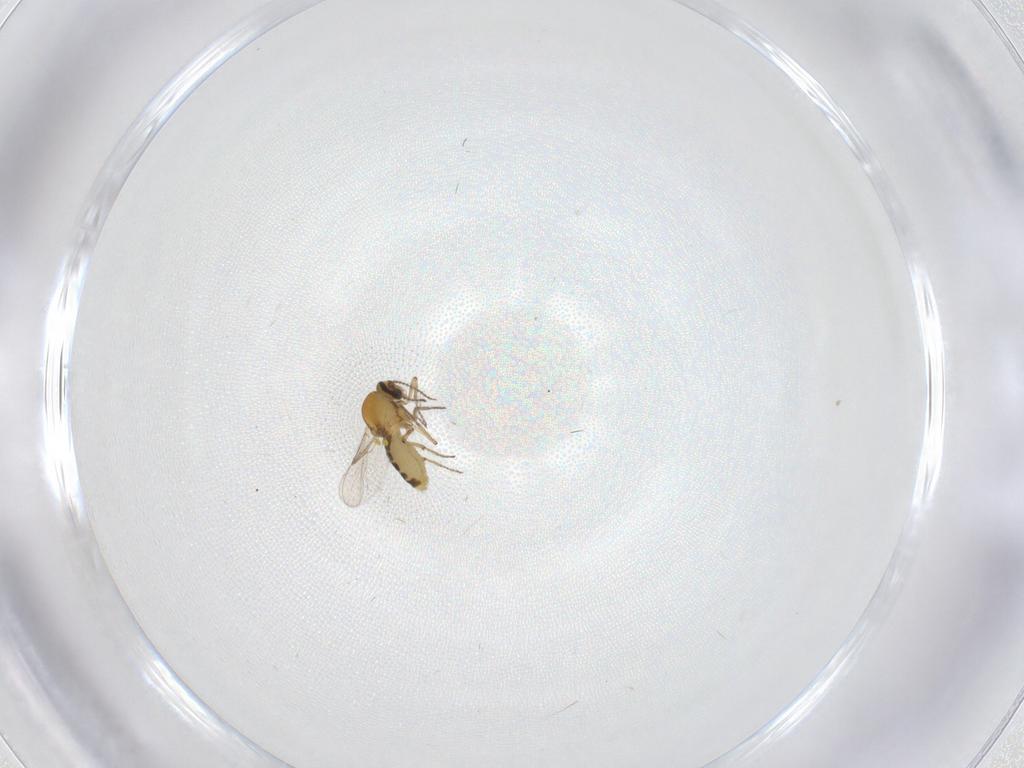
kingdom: Animalia
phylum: Arthropoda
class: Insecta
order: Diptera
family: Ceratopogonidae
